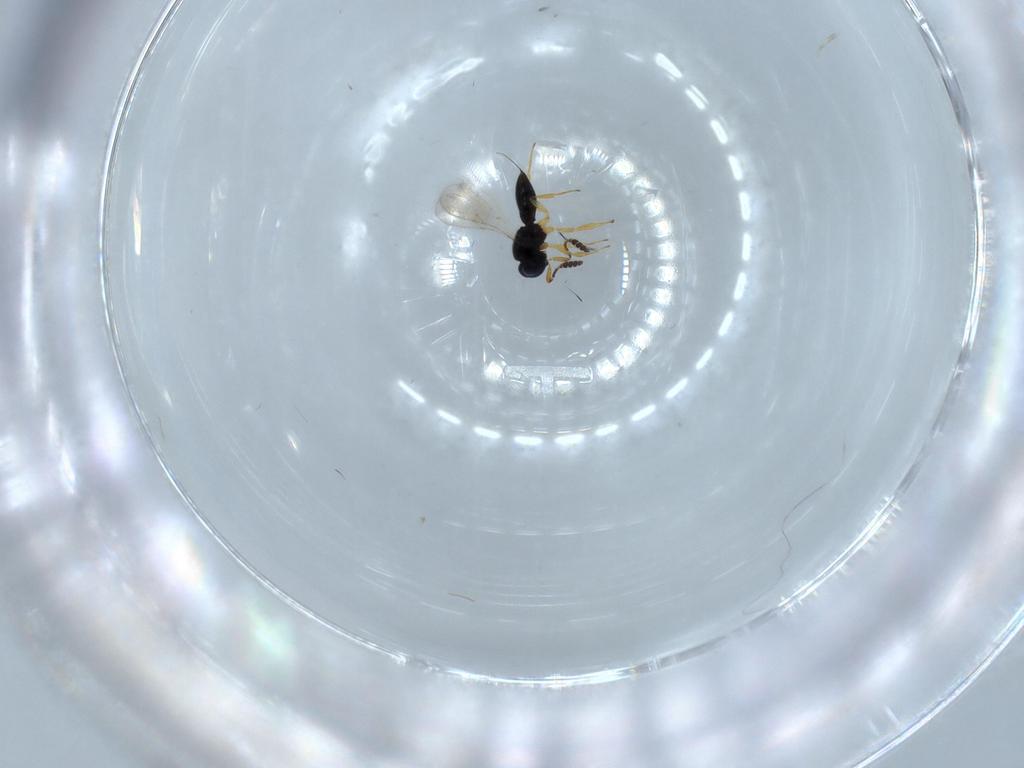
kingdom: Animalia
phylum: Arthropoda
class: Insecta
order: Hymenoptera
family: Scelionidae
